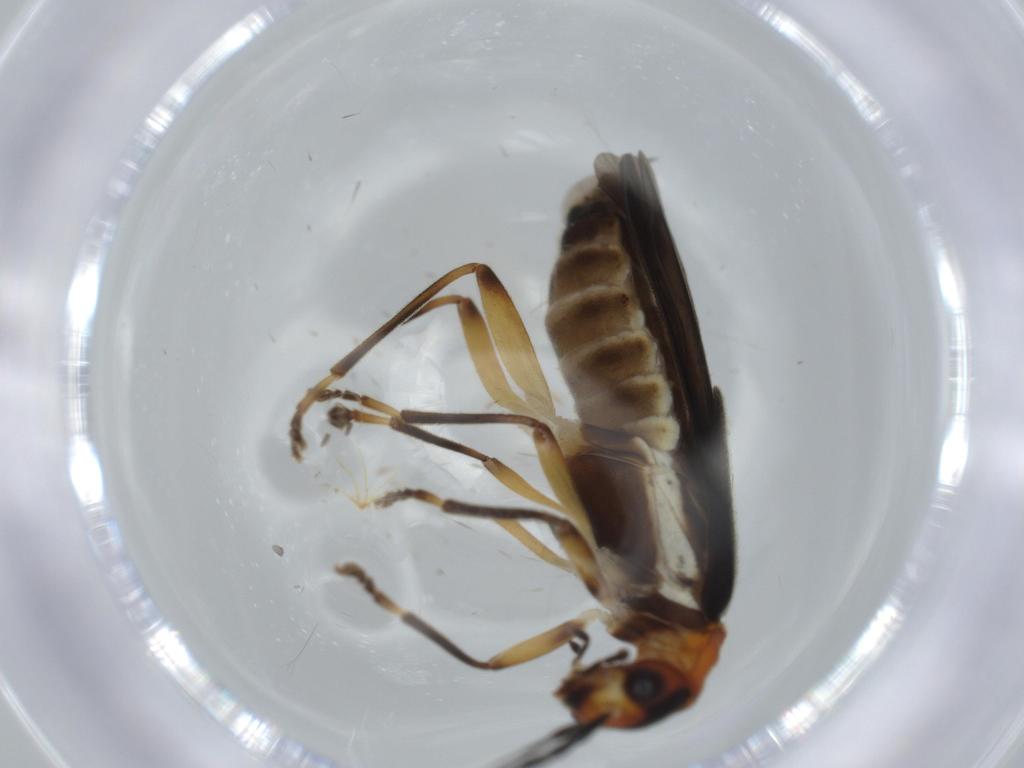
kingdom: Animalia
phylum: Arthropoda
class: Insecta
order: Coleoptera
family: Cantharidae
